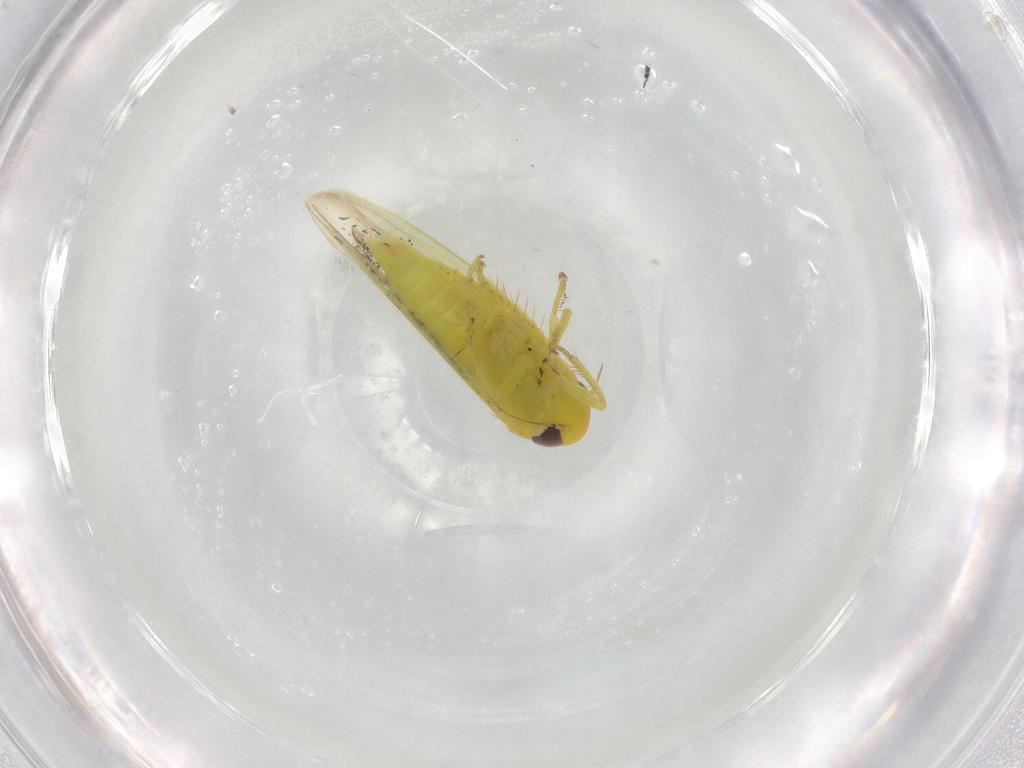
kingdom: Animalia
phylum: Arthropoda
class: Insecta
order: Hemiptera
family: Cicadellidae
